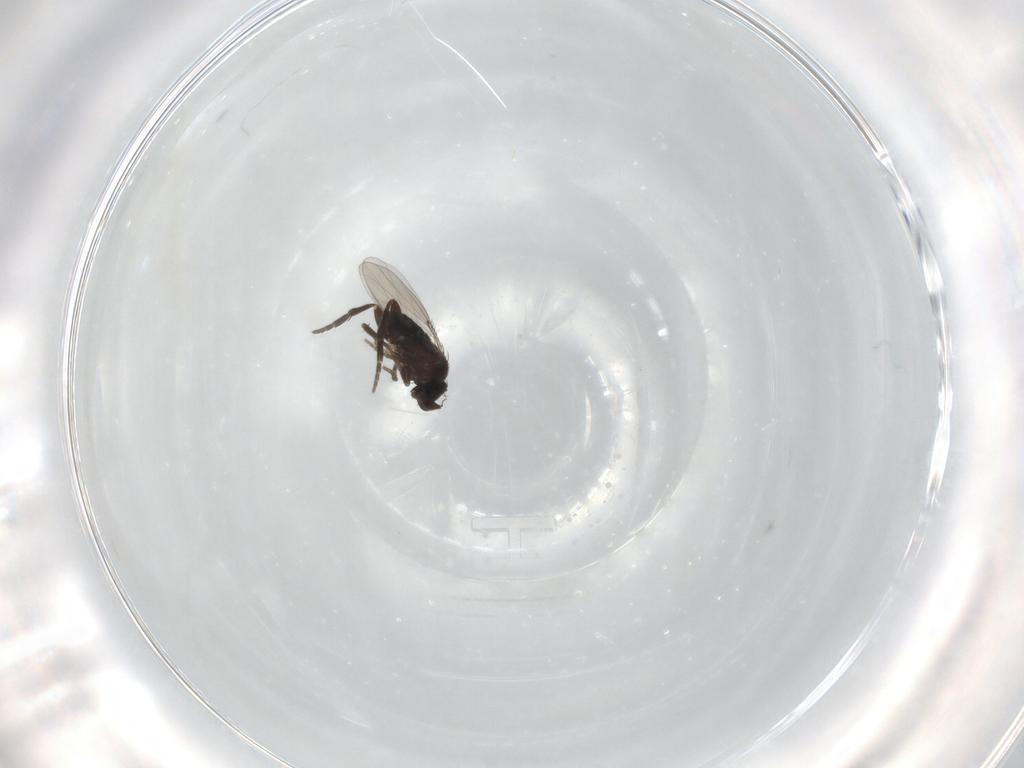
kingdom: Animalia
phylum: Arthropoda
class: Insecta
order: Diptera
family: Phoridae
